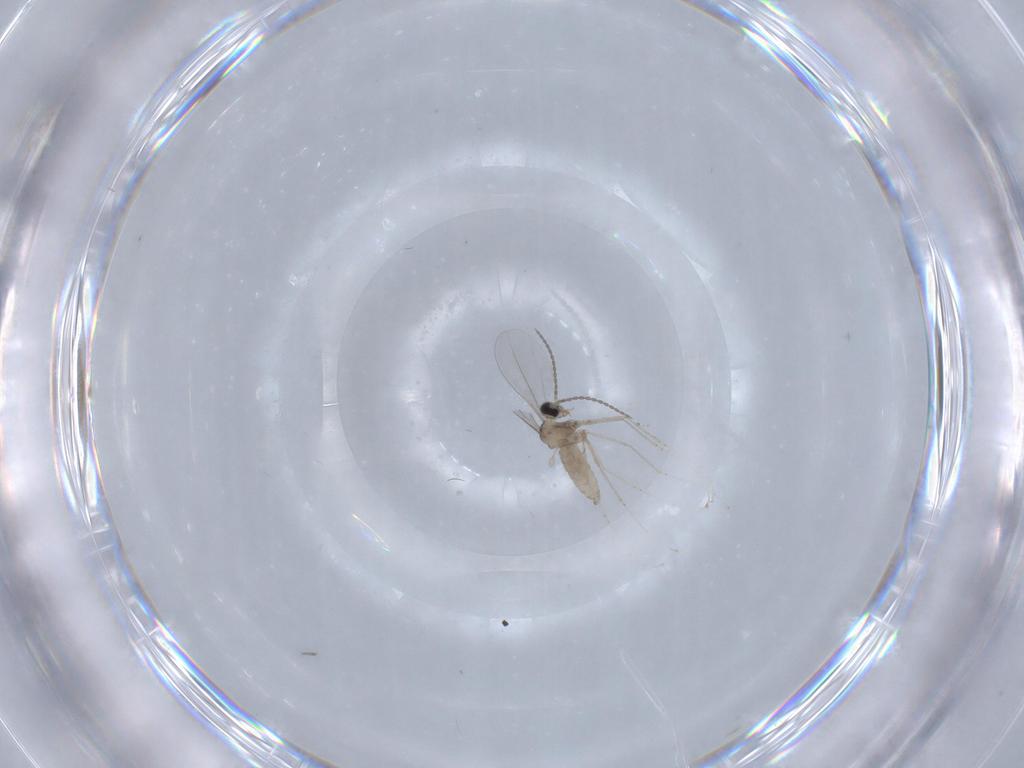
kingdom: Animalia
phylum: Arthropoda
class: Insecta
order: Diptera
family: Cecidomyiidae
